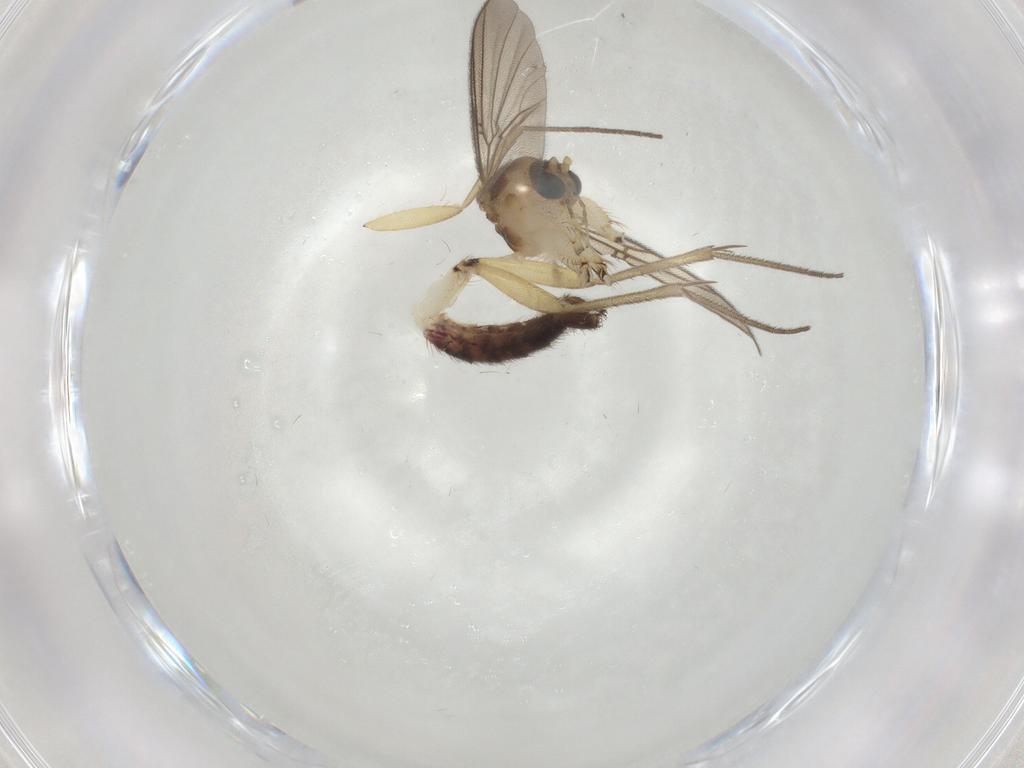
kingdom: Animalia
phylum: Arthropoda
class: Insecta
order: Diptera
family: Mycetophilidae
